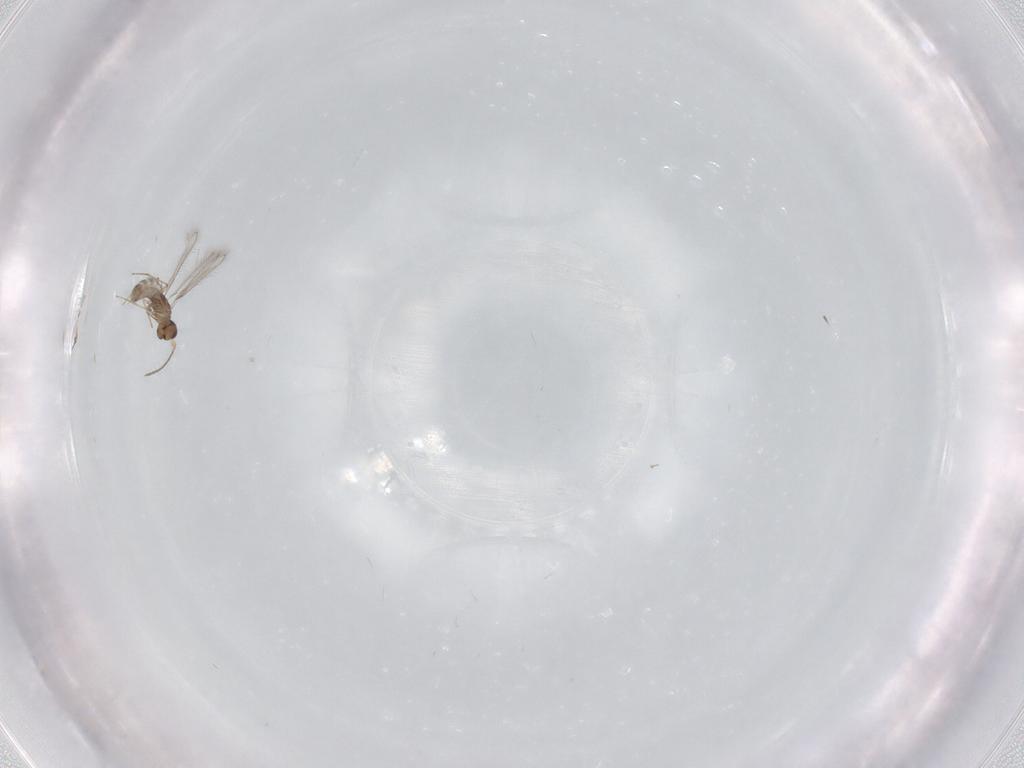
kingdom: Animalia
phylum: Arthropoda
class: Insecta
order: Hymenoptera
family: Mymaridae
